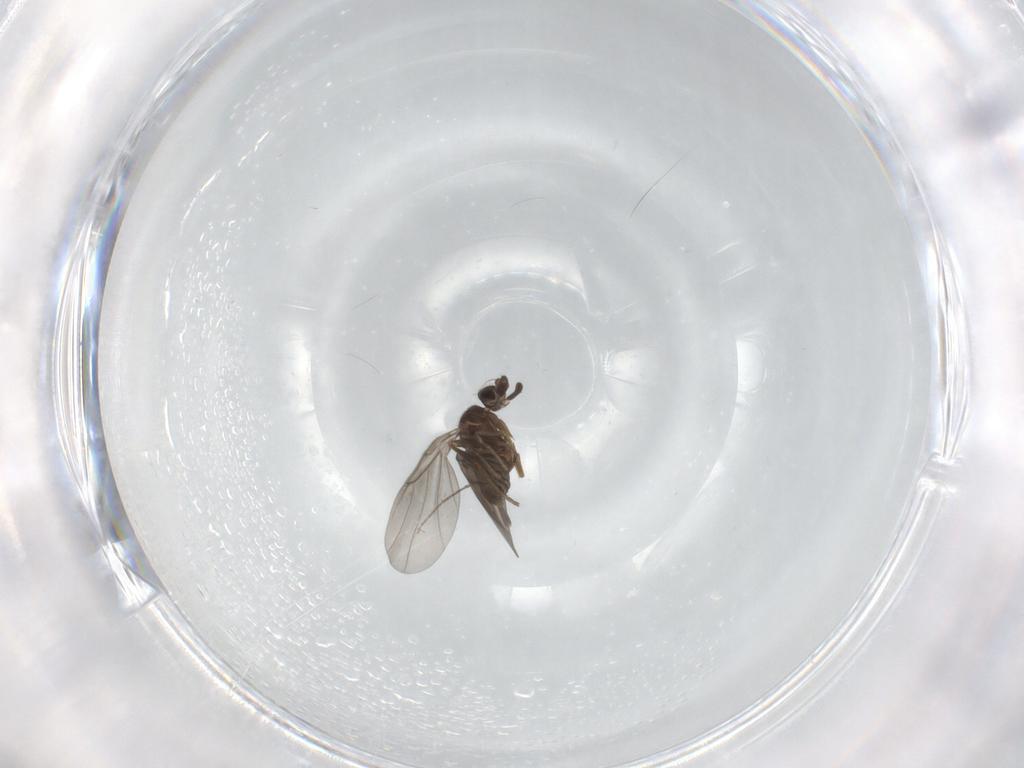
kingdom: Animalia
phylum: Arthropoda
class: Insecta
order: Diptera
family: Chironomidae
